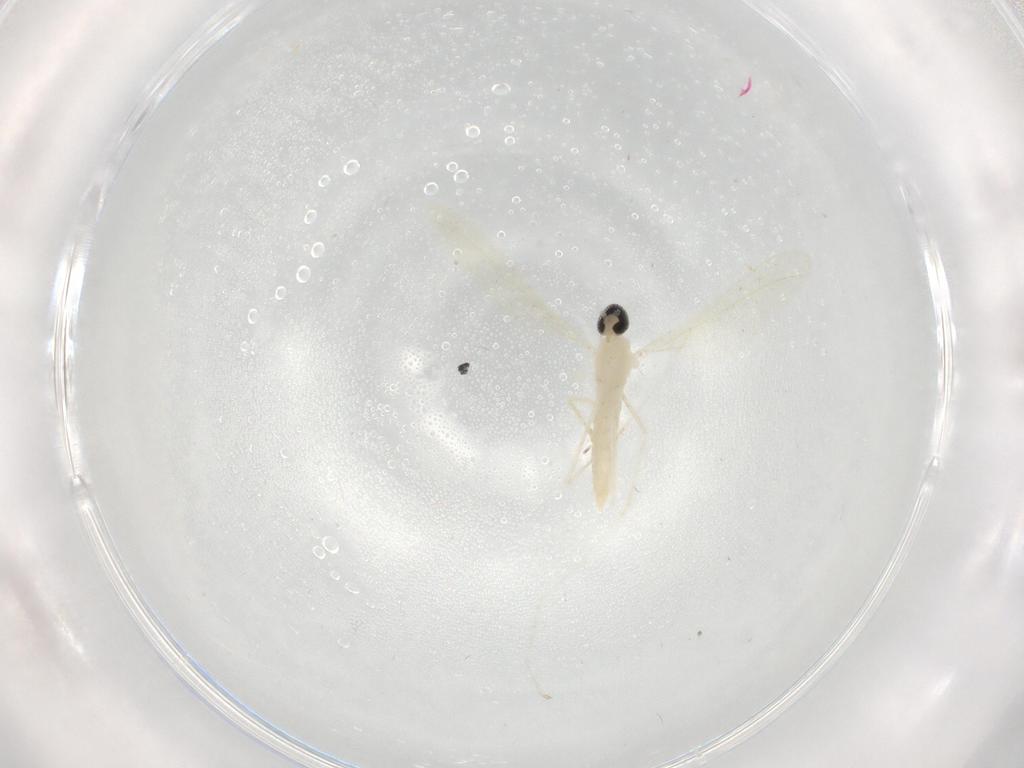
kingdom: Animalia
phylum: Arthropoda
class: Insecta
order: Diptera
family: Cecidomyiidae
